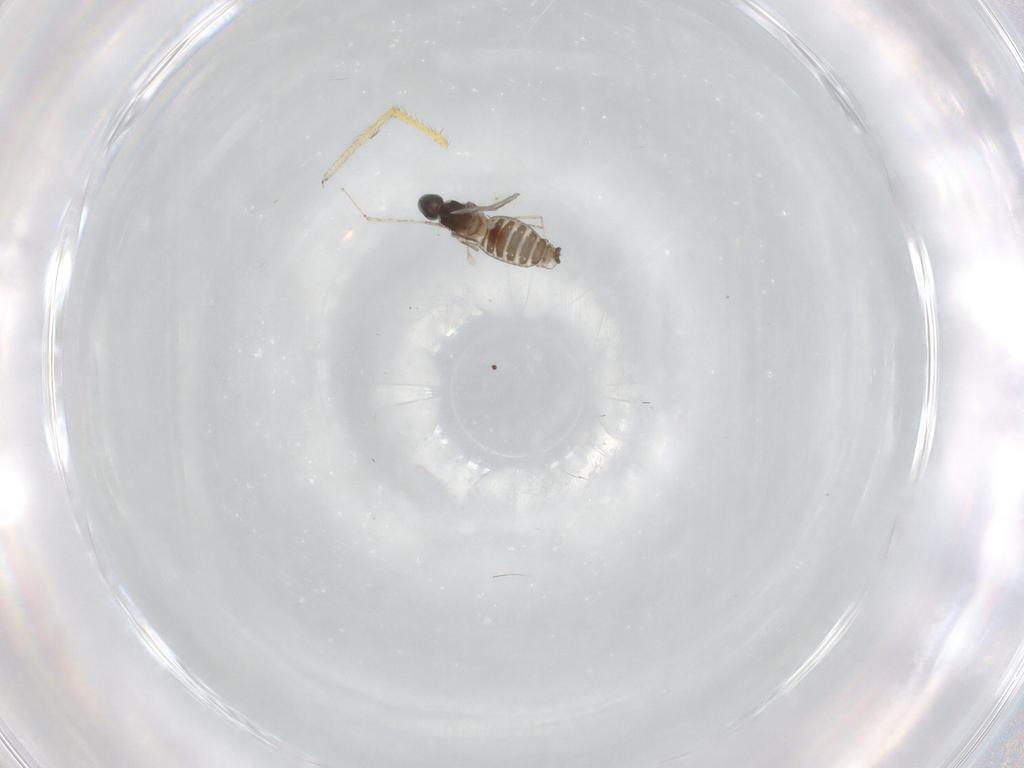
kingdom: Animalia
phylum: Arthropoda
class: Insecta
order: Diptera
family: Cecidomyiidae
